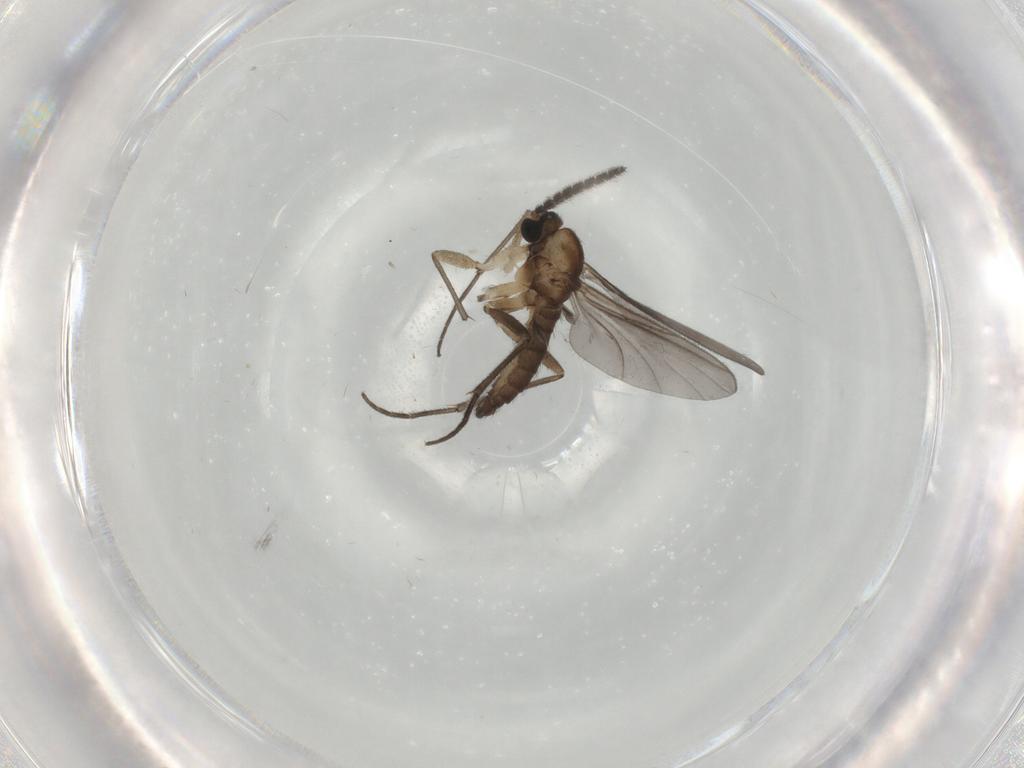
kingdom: Animalia
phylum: Arthropoda
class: Insecta
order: Diptera
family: Sciaridae
